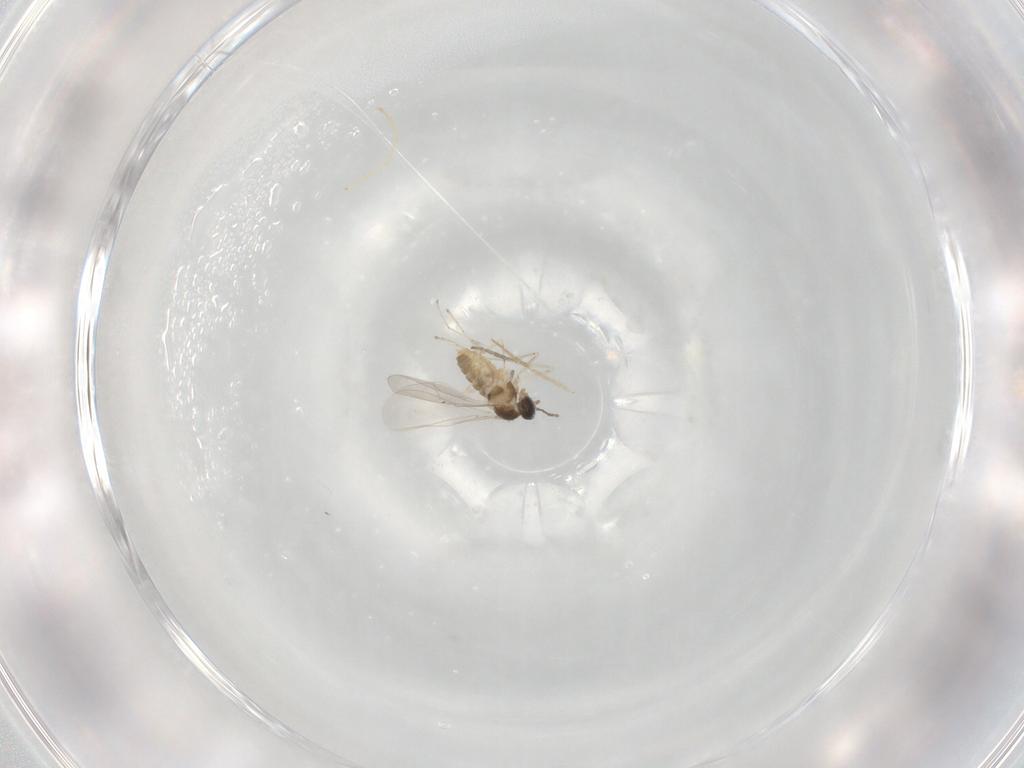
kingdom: Animalia
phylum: Arthropoda
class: Insecta
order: Diptera
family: Cecidomyiidae
